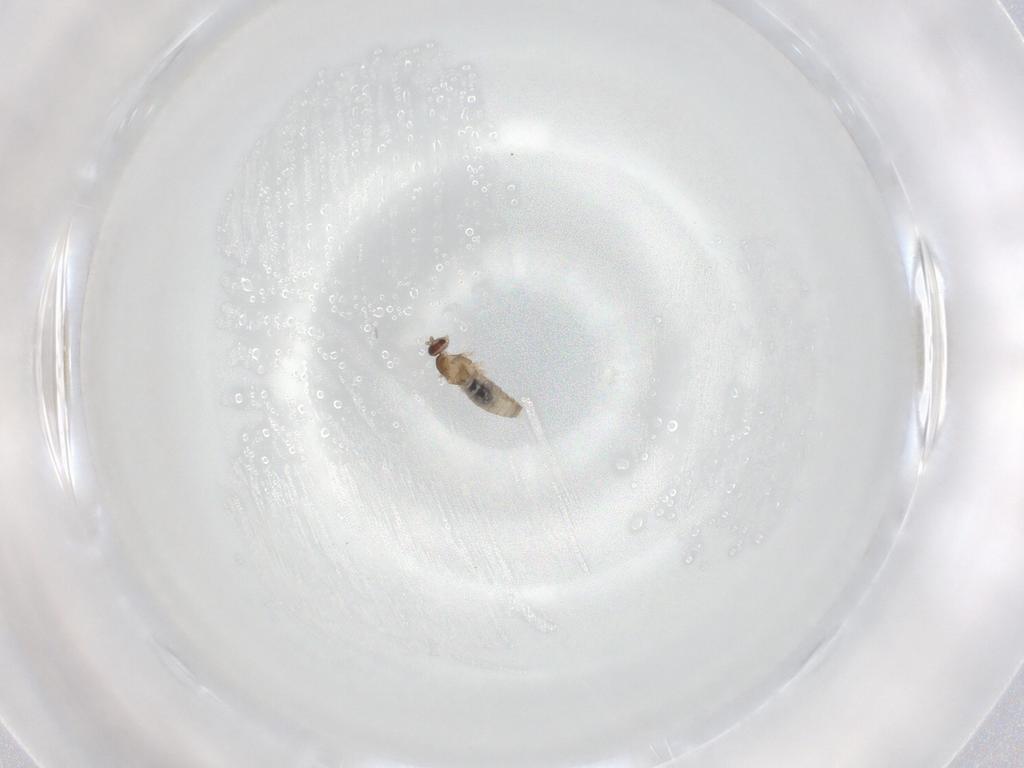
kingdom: Animalia
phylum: Arthropoda
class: Insecta
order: Diptera
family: Cecidomyiidae
